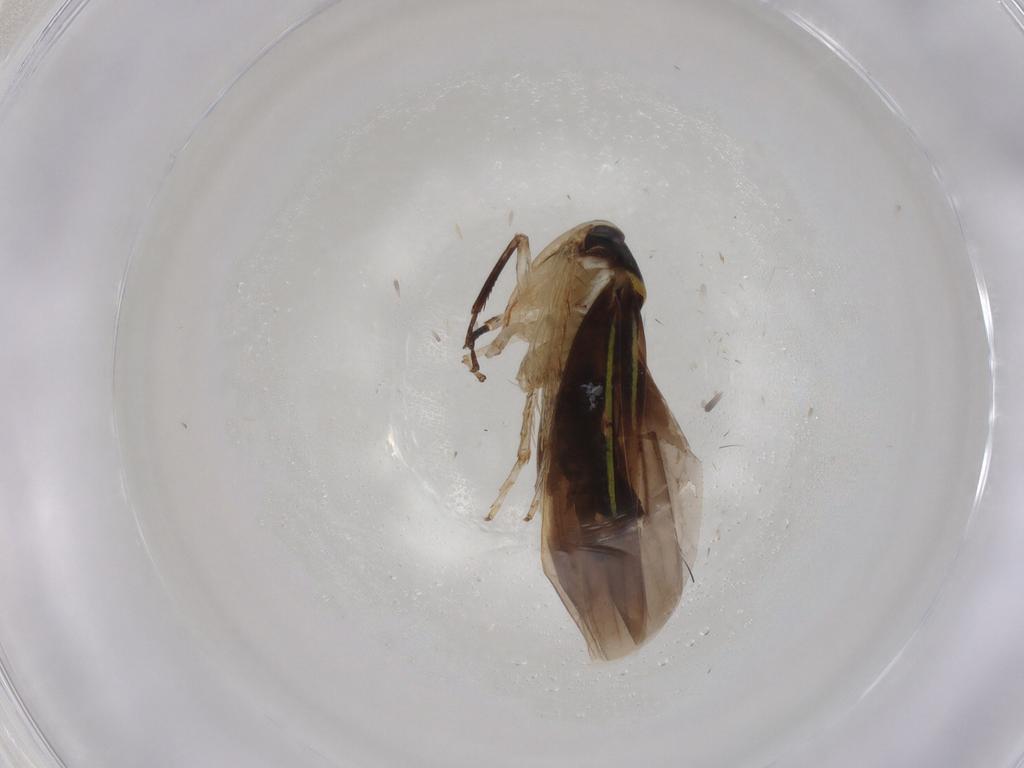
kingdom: Animalia
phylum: Arthropoda
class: Insecta
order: Hemiptera
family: Cicadellidae
